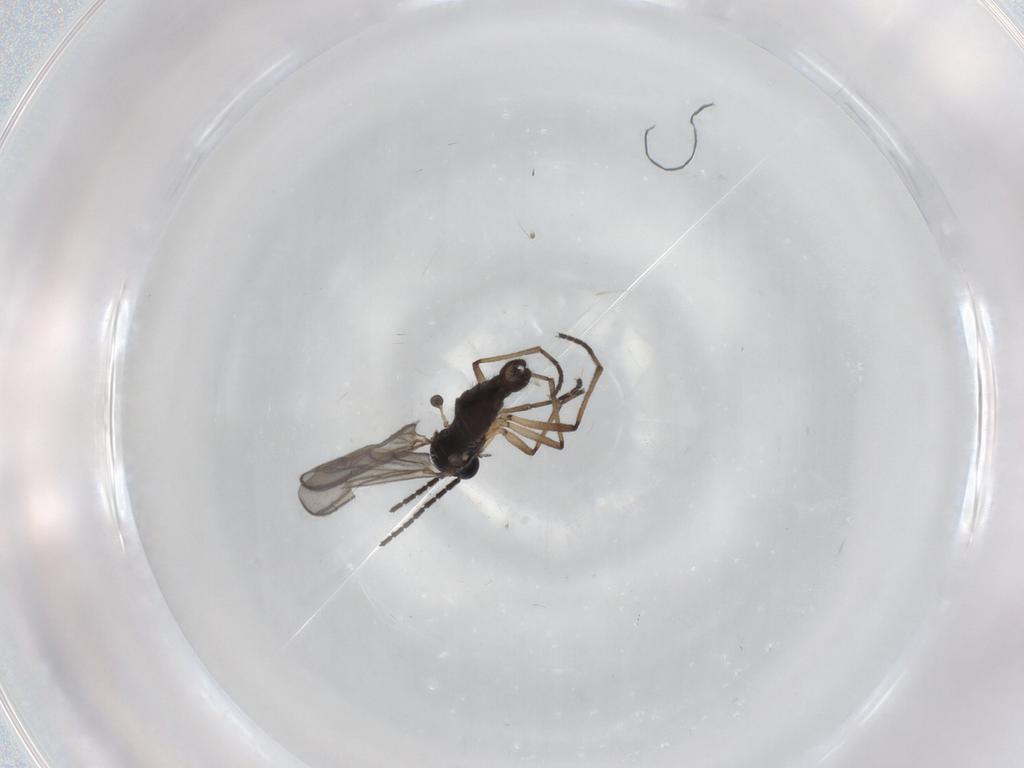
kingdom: Animalia
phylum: Arthropoda
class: Insecta
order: Diptera
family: Sciaridae
